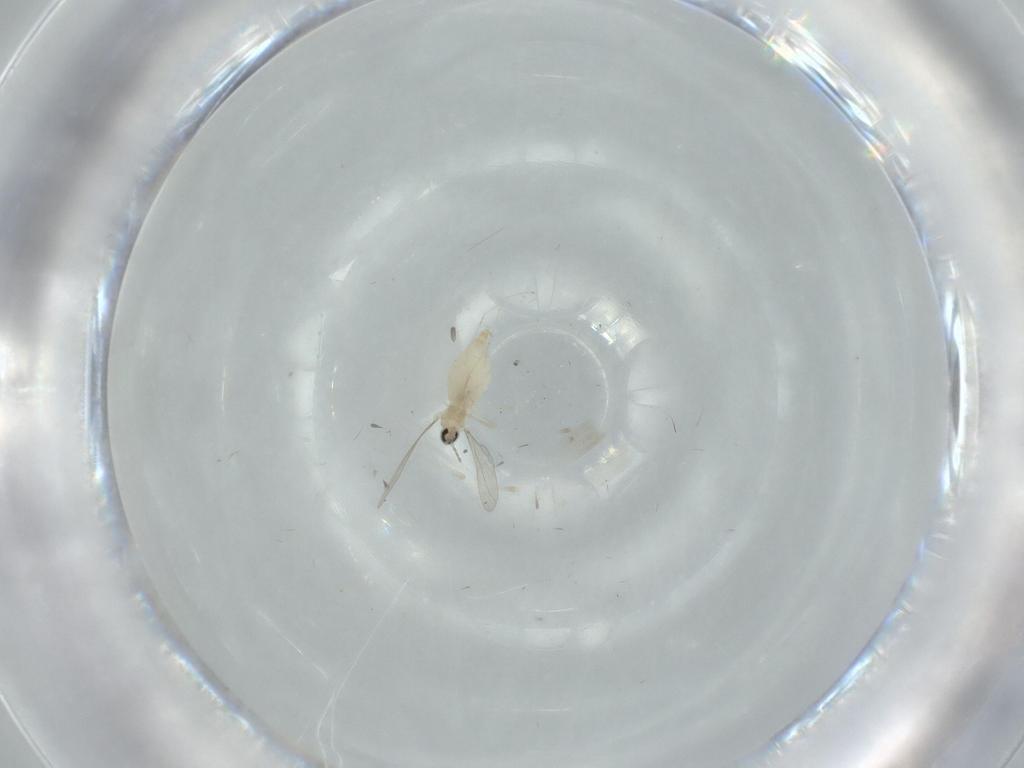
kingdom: Animalia
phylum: Arthropoda
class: Insecta
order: Diptera
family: Cecidomyiidae
